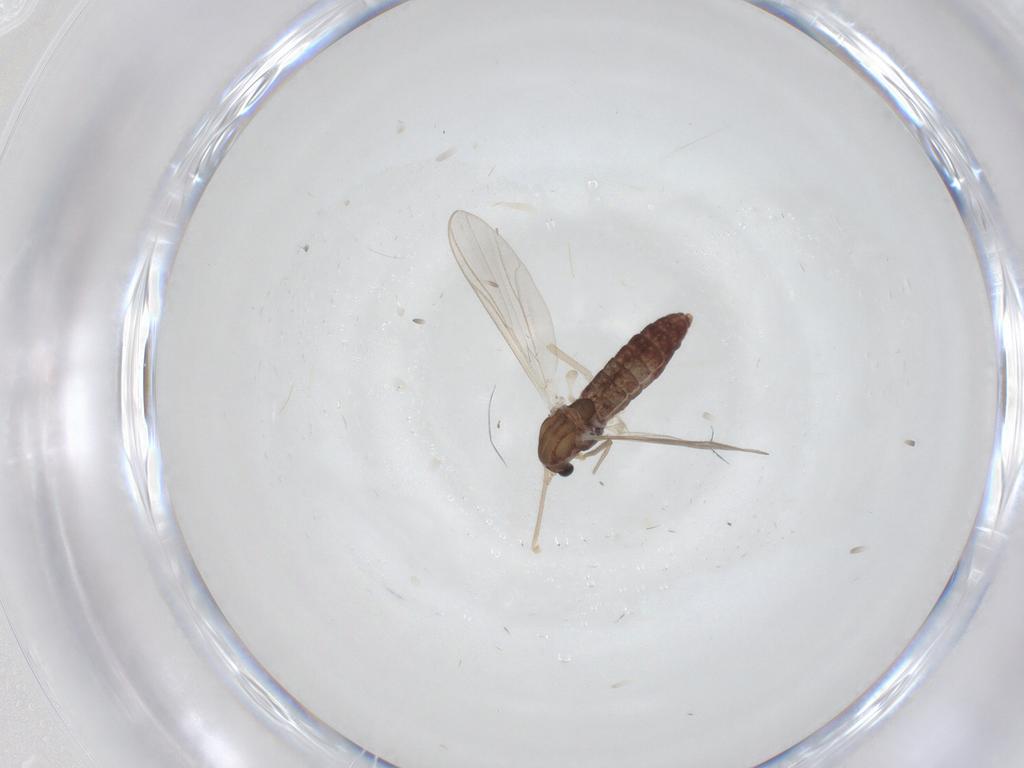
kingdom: Animalia
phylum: Arthropoda
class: Insecta
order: Diptera
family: Chironomidae
